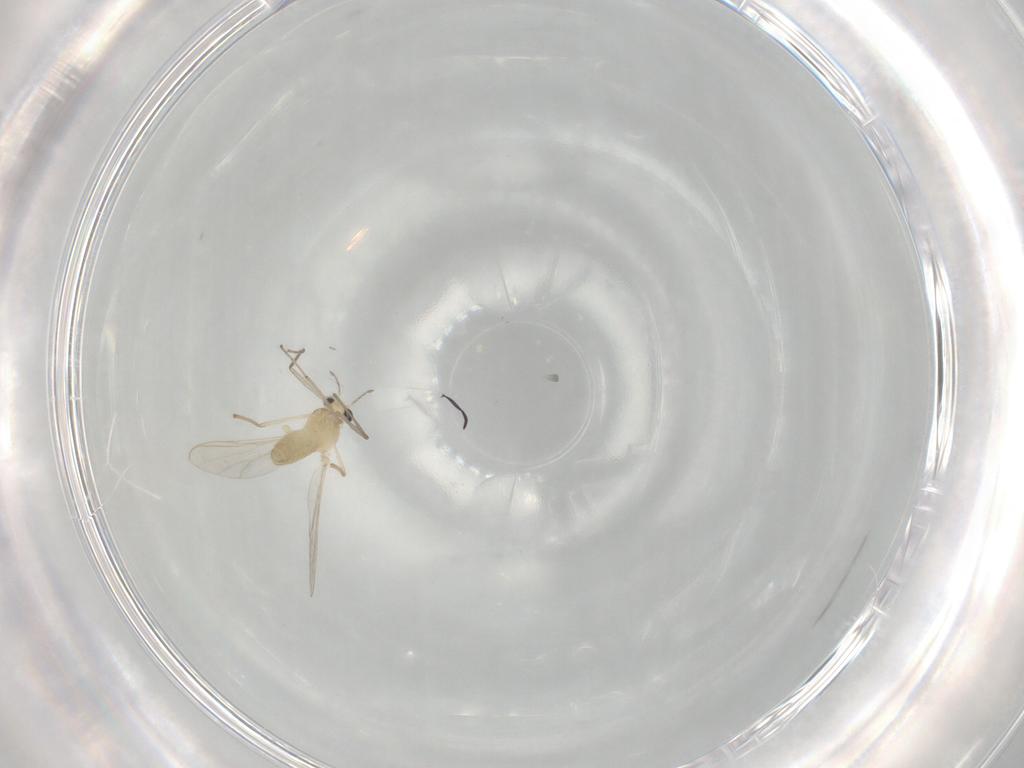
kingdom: Animalia
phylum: Arthropoda
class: Insecta
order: Diptera
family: Chironomidae
